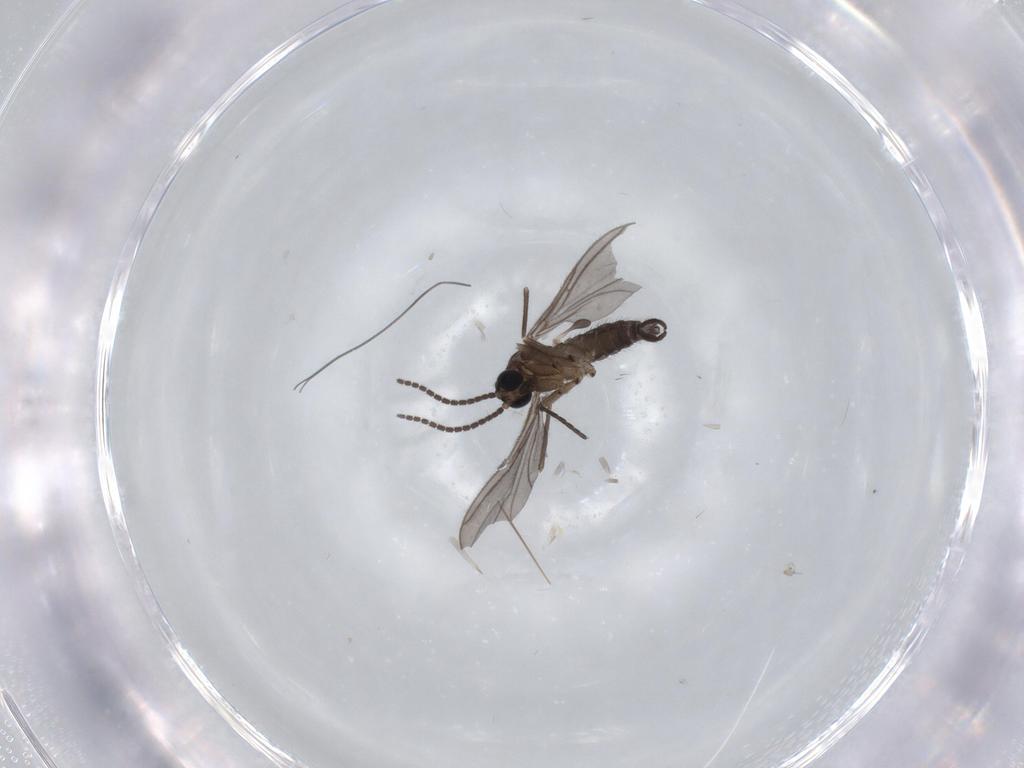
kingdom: Animalia
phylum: Arthropoda
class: Insecta
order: Diptera
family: Sciaridae
